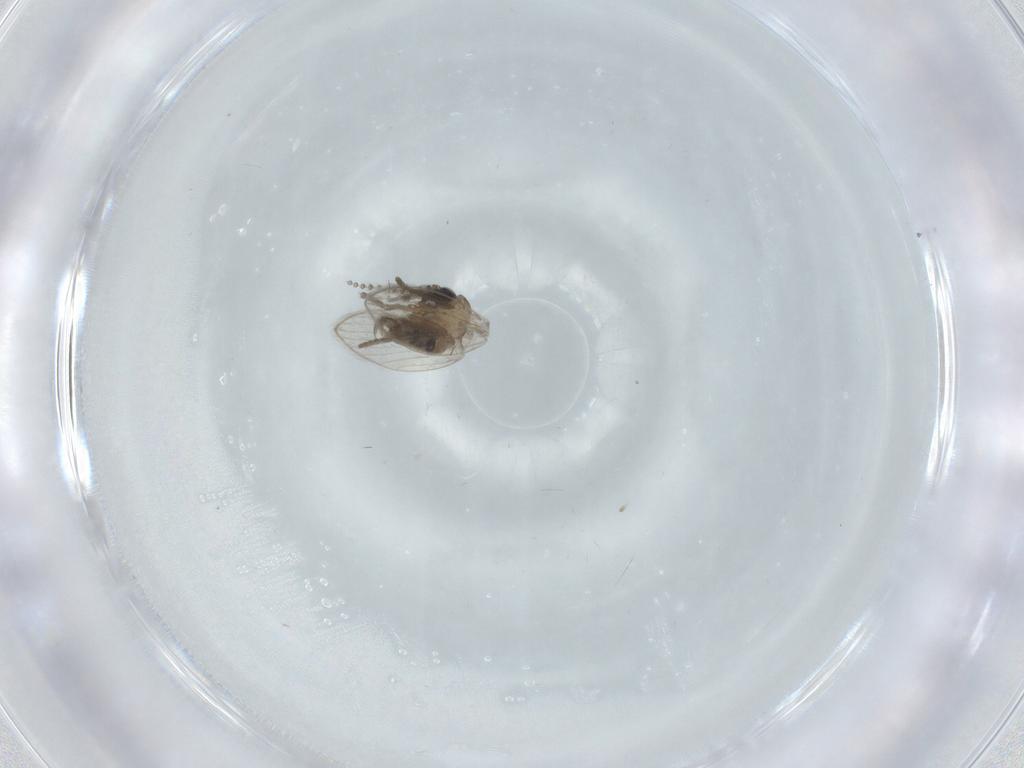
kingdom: Animalia
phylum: Arthropoda
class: Insecta
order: Diptera
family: Psychodidae
